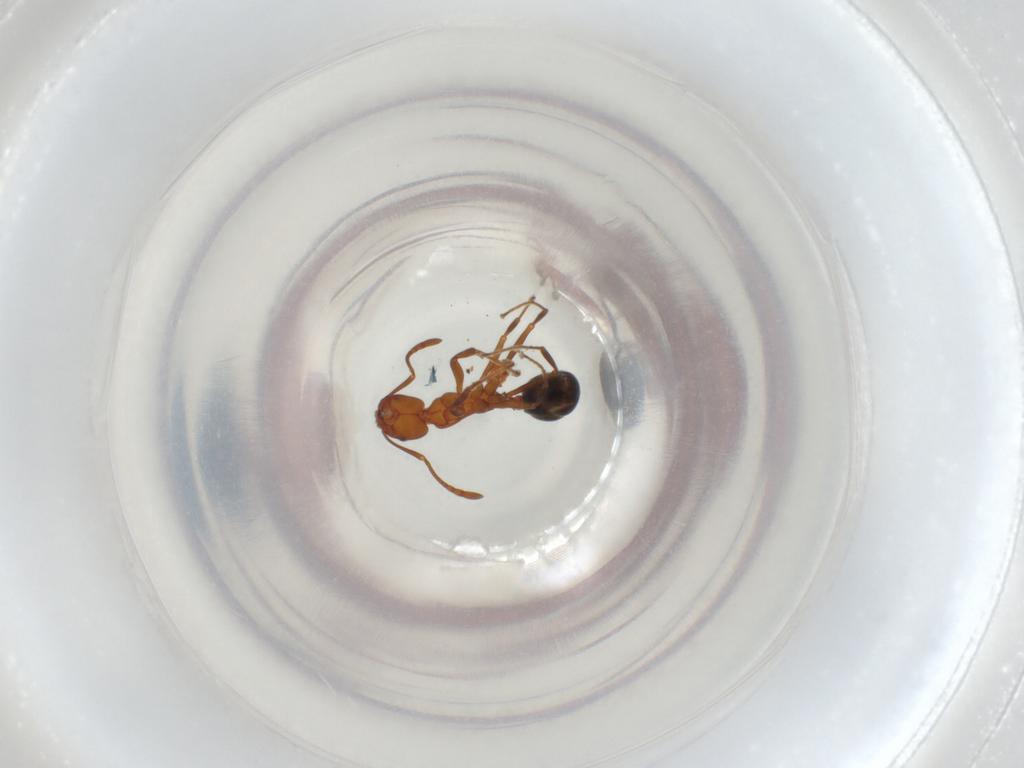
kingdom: Animalia
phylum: Arthropoda
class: Insecta
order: Hymenoptera
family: Formicidae
